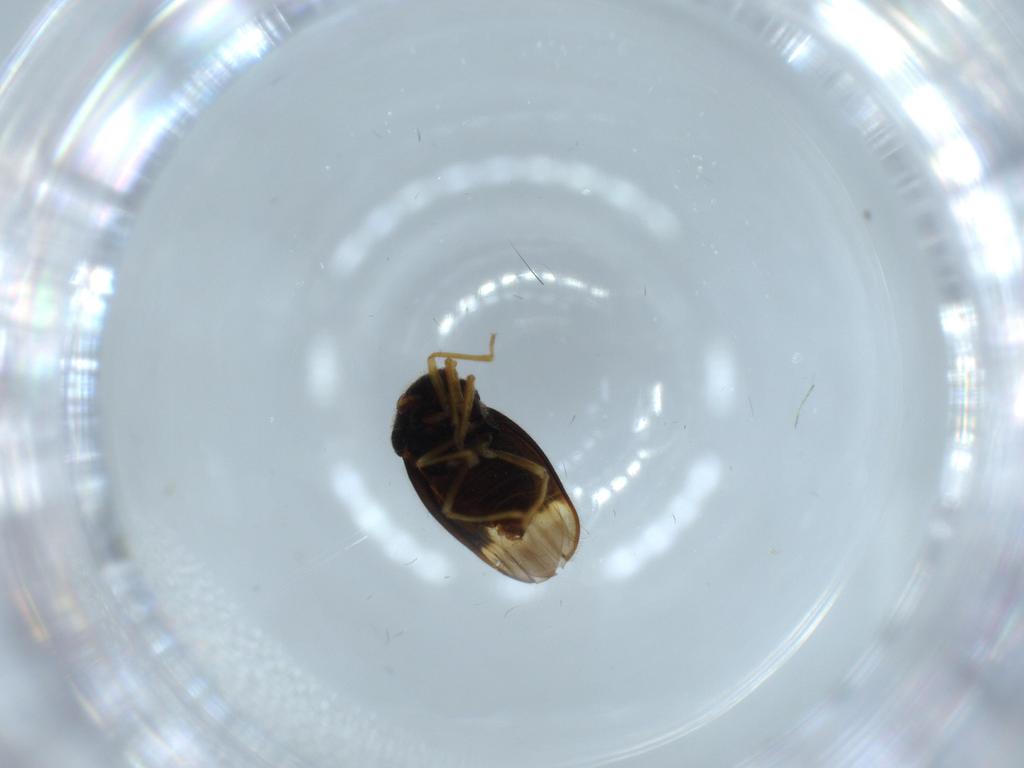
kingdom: Animalia
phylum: Arthropoda
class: Insecta
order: Hemiptera
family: Schizopteridae
